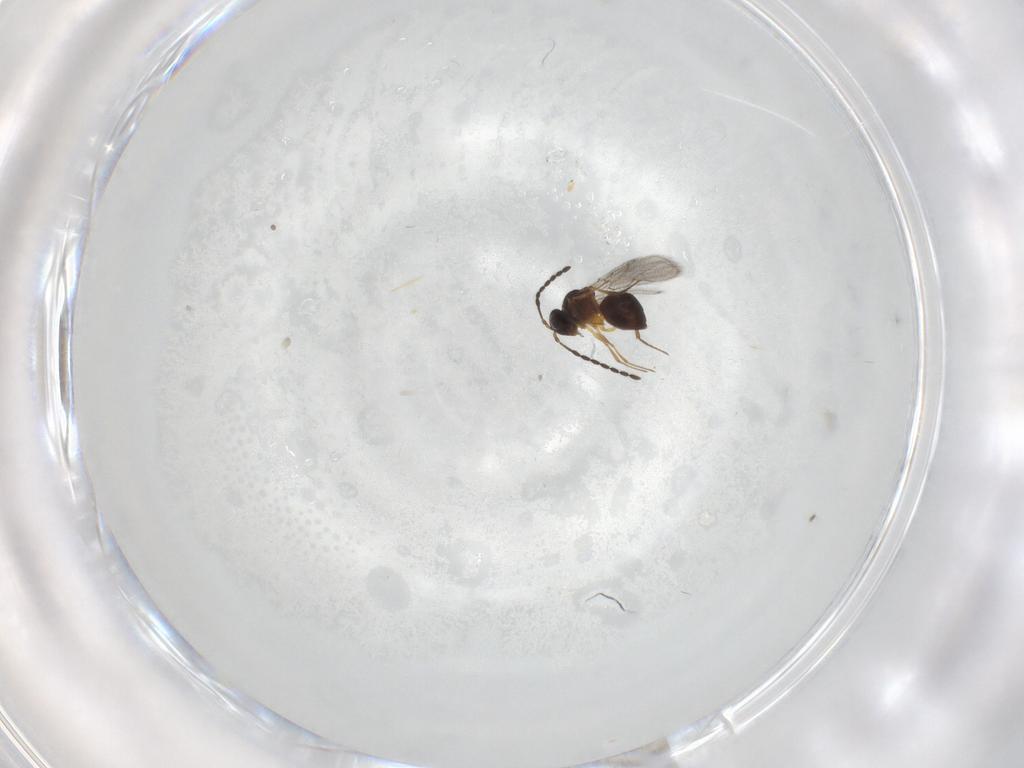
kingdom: Animalia
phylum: Arthropoda
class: Insecta
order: Hymenoptera
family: Figitidae
